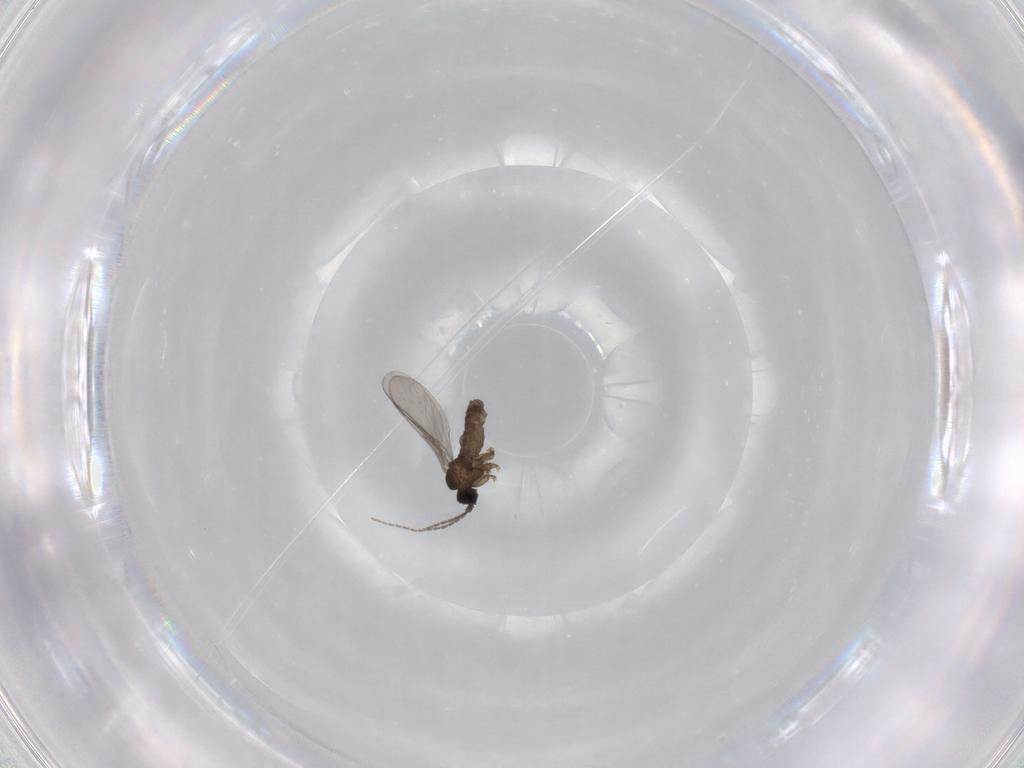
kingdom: Animalia
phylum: Arthropoda
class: Insecta
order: Diptera
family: Sciaridae
